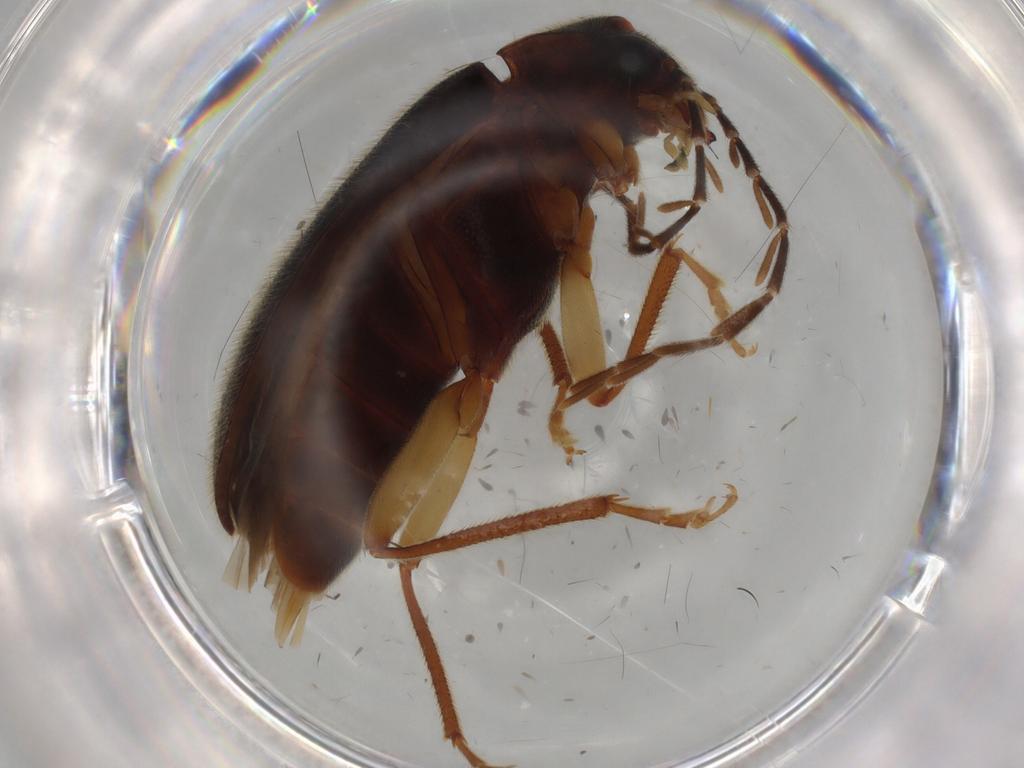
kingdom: Animalia
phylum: Arthropoda
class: Insecta
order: Coleoptera
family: Ptilodactylidae
